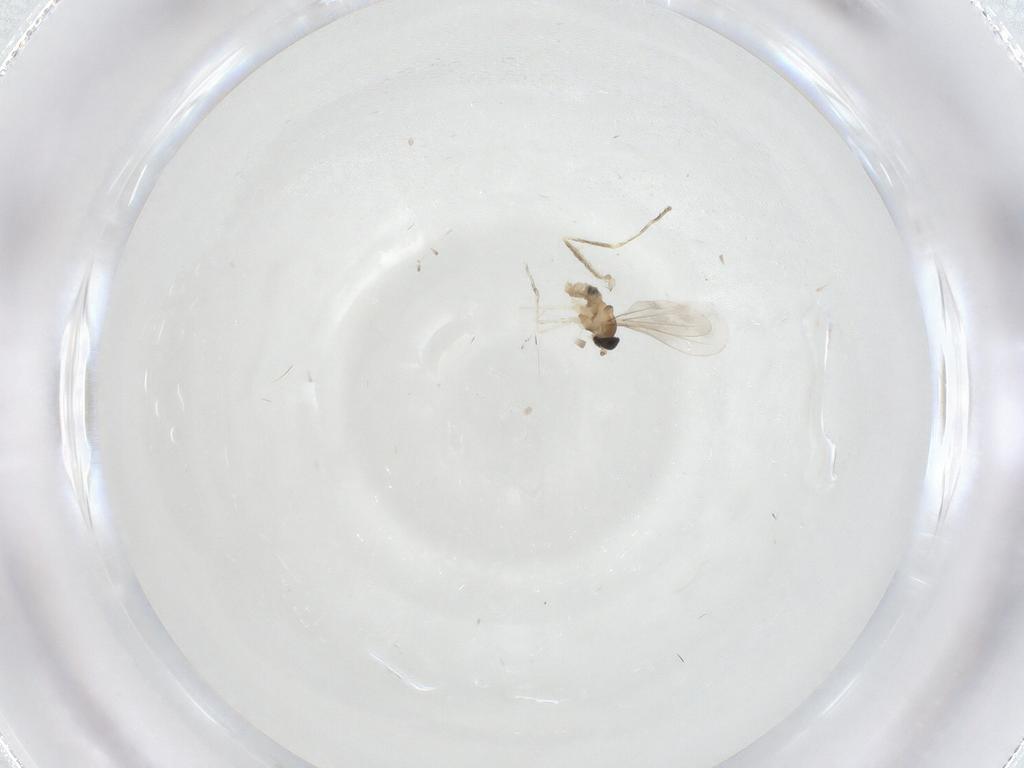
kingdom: Animalia
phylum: Arthropoda
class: Insecta
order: Diptera
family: Cecidomyiidae
